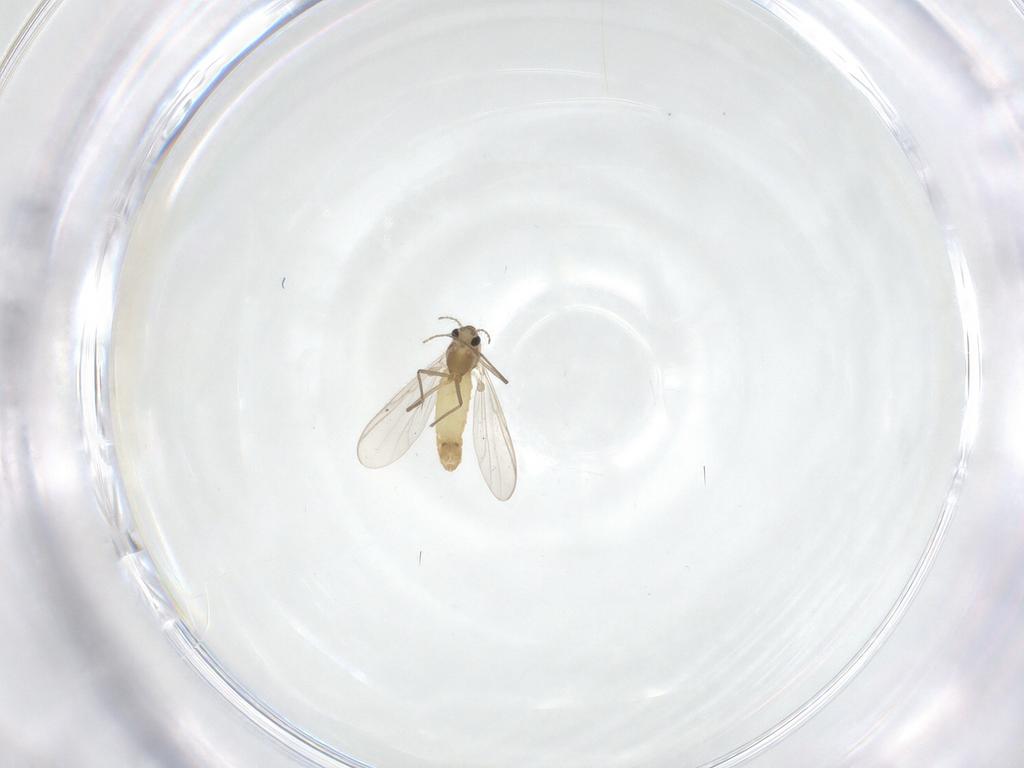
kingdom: Animalia
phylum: Arthropoda
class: Insecta
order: Diptera
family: Chironomidae
